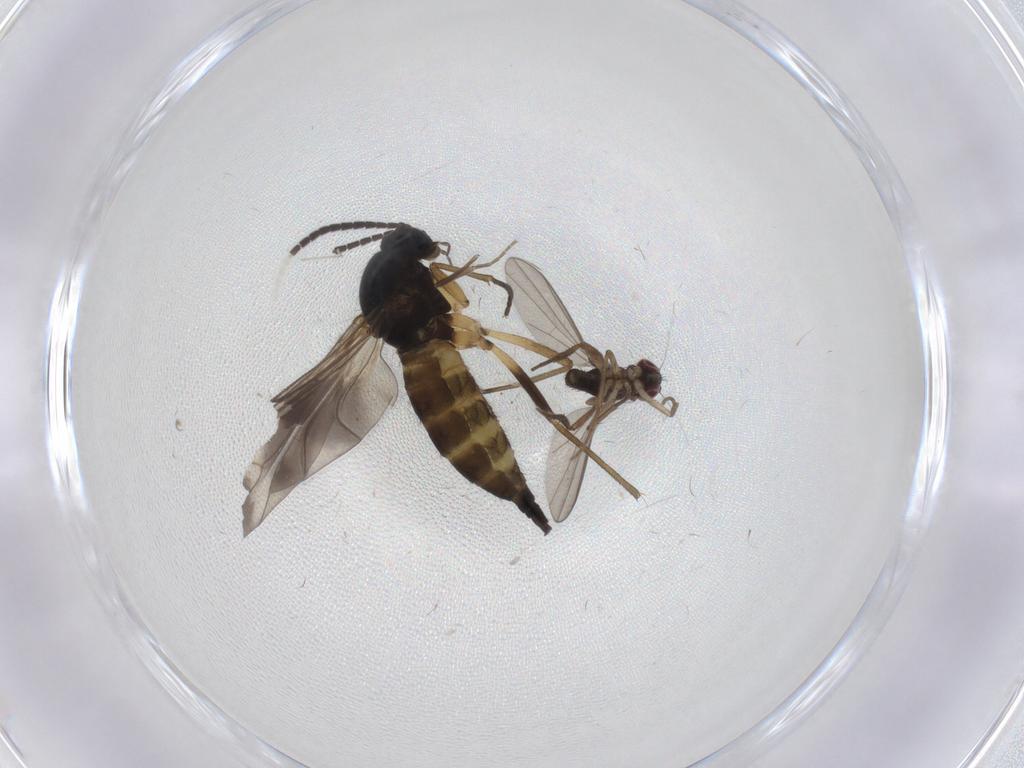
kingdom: Animalia
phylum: Arthropoda
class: Insecta
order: Diptera
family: Dolichopodidae
